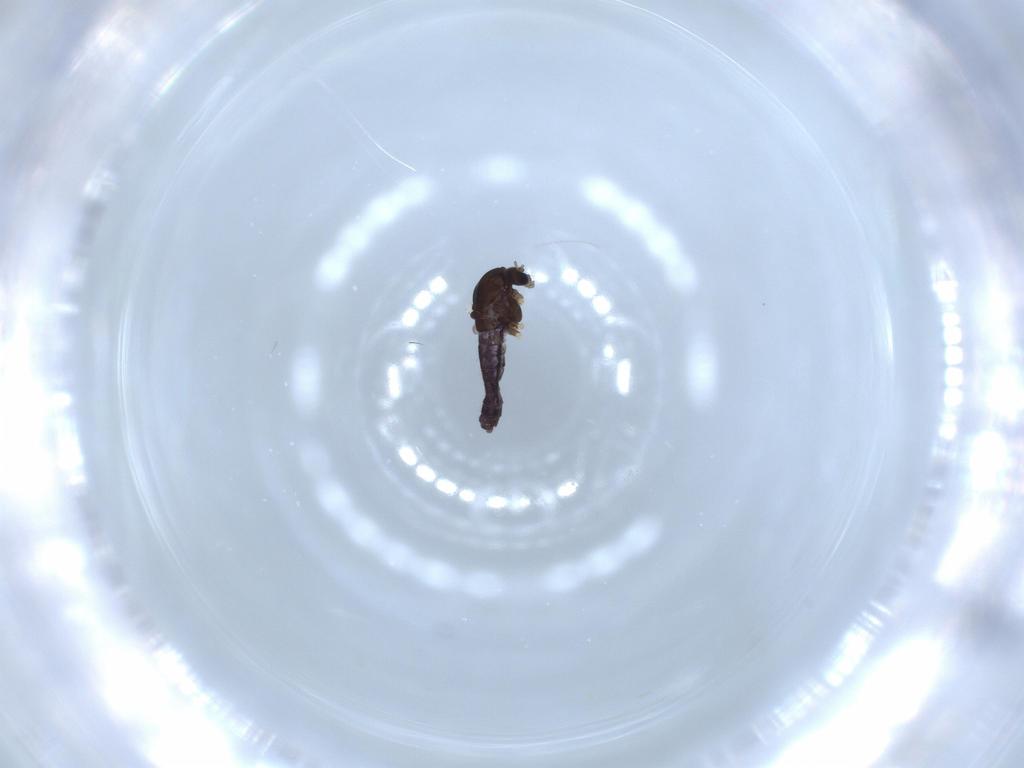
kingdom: Animalia
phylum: Arthropoda
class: Insecta
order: Diptera
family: Chironomidae
